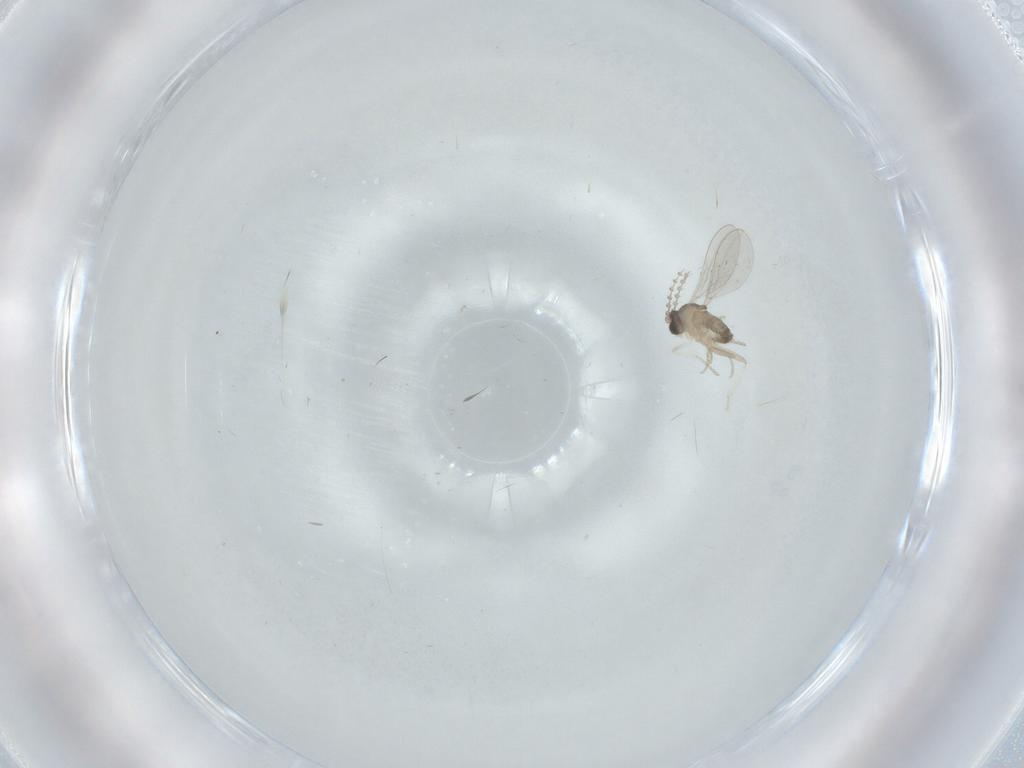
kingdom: Animalia
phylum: Arthropoda
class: Insecta
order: Diptera
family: Cecidomyiidae
